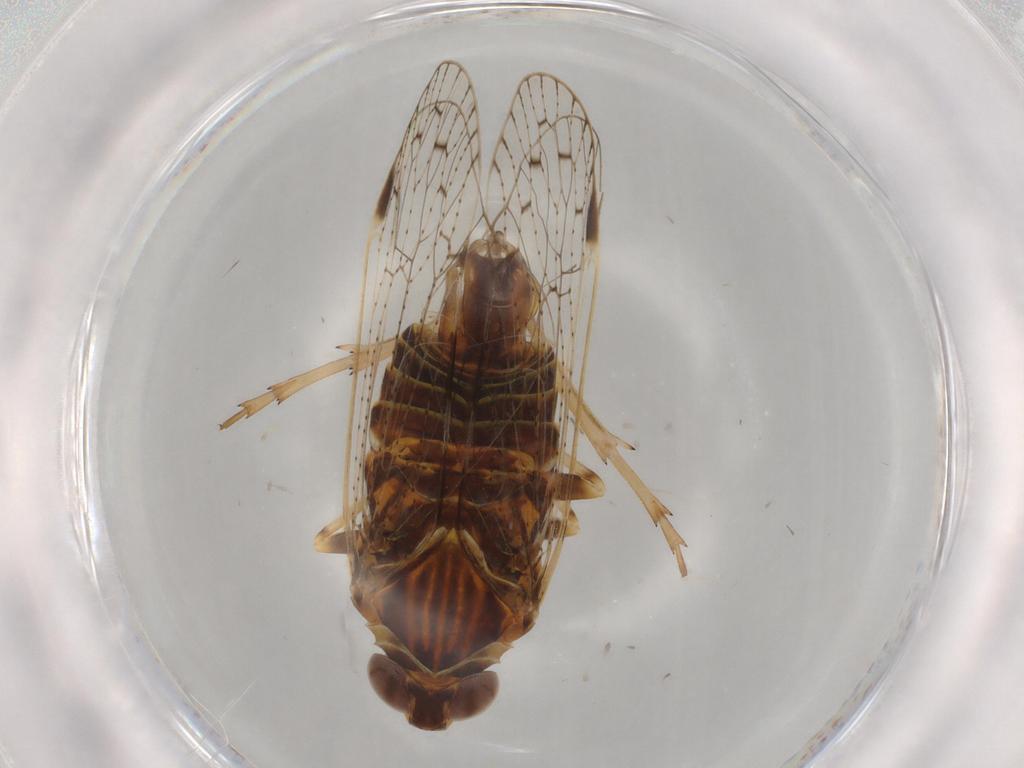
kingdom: Animalia
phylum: Arthropoda
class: Insecta
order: Hemiptera
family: Cixiidae
